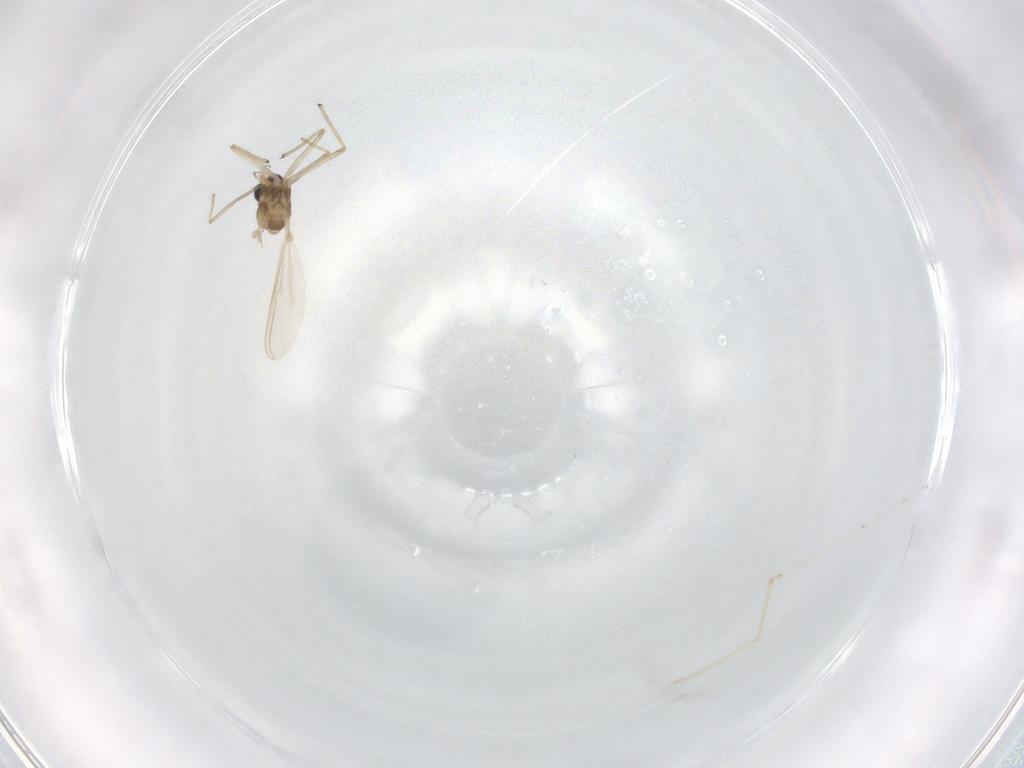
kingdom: Animalia
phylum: Arthropoda
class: Insecta
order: Diptera
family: Chironomidae
